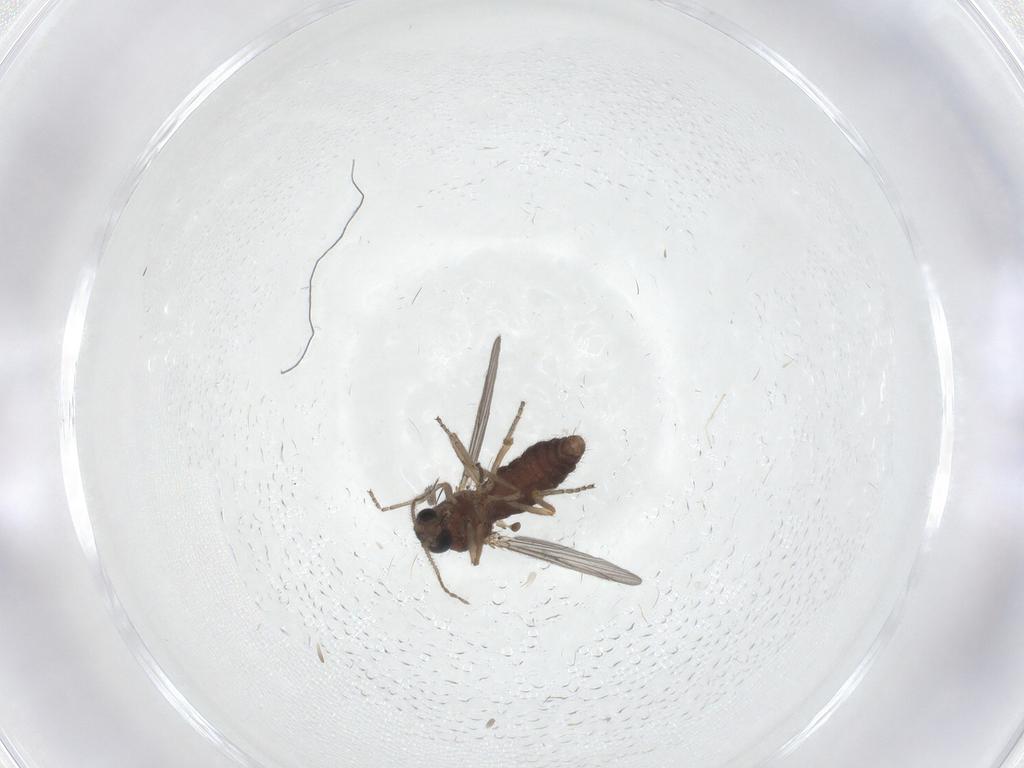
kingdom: Animalia
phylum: Arthropoda
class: Insecta
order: Diptera
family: Ceratopogonidae
